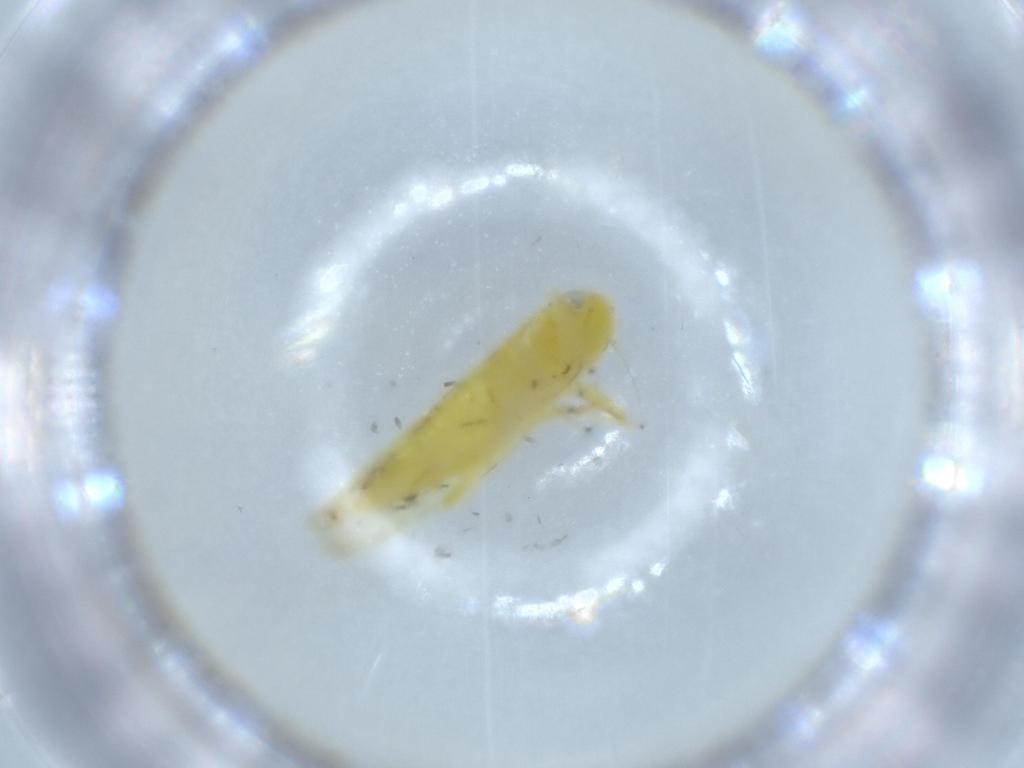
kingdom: Animalia
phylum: Arthropoda
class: Insecta
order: Hemiptera
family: Cicadellidae
